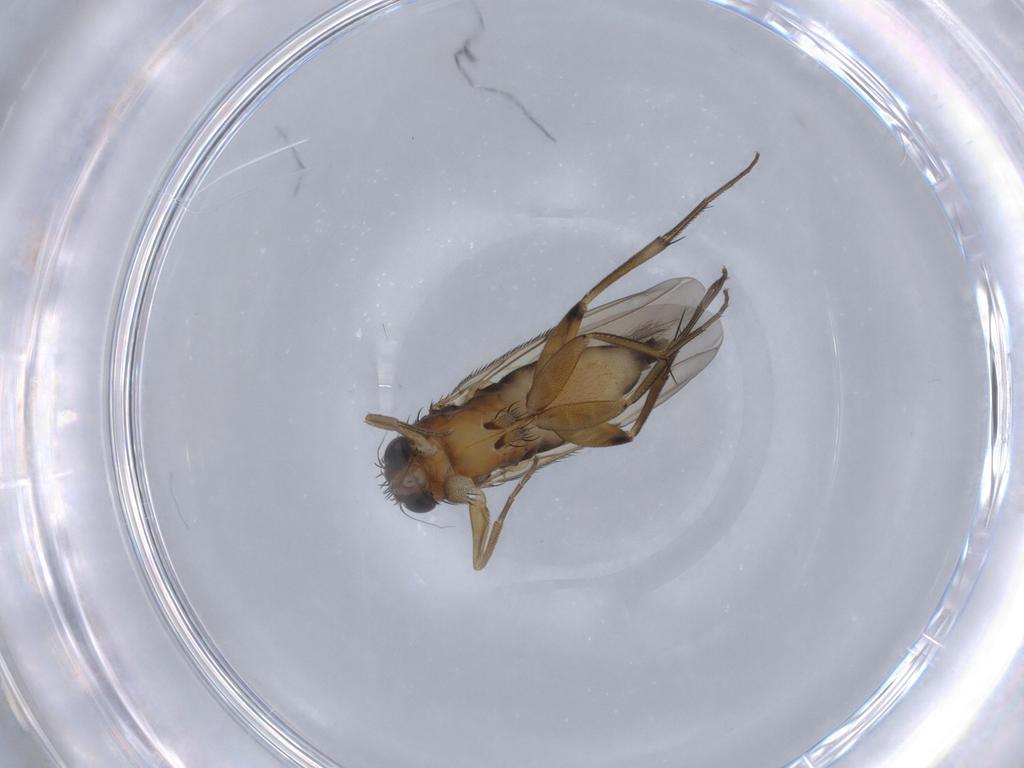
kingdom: Animalia
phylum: Arthropoda
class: Insecta
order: Diptera
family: Phoridae
